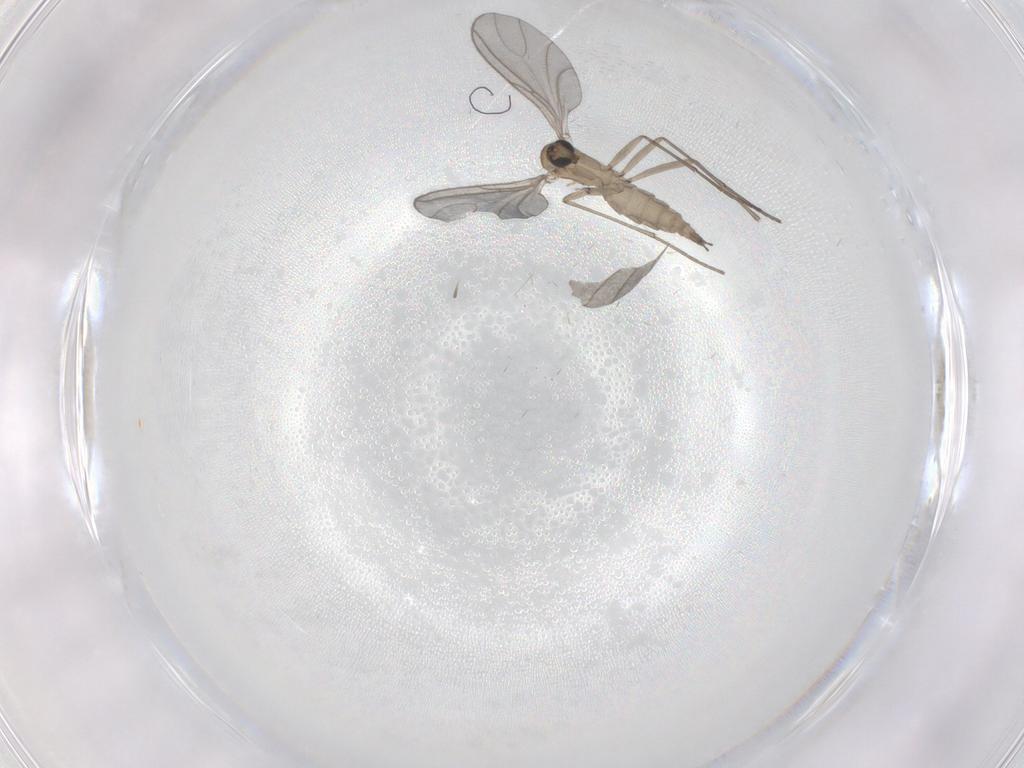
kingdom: Animalia
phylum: Arthropoda
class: Insecta
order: Diptera
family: Sciaridae
